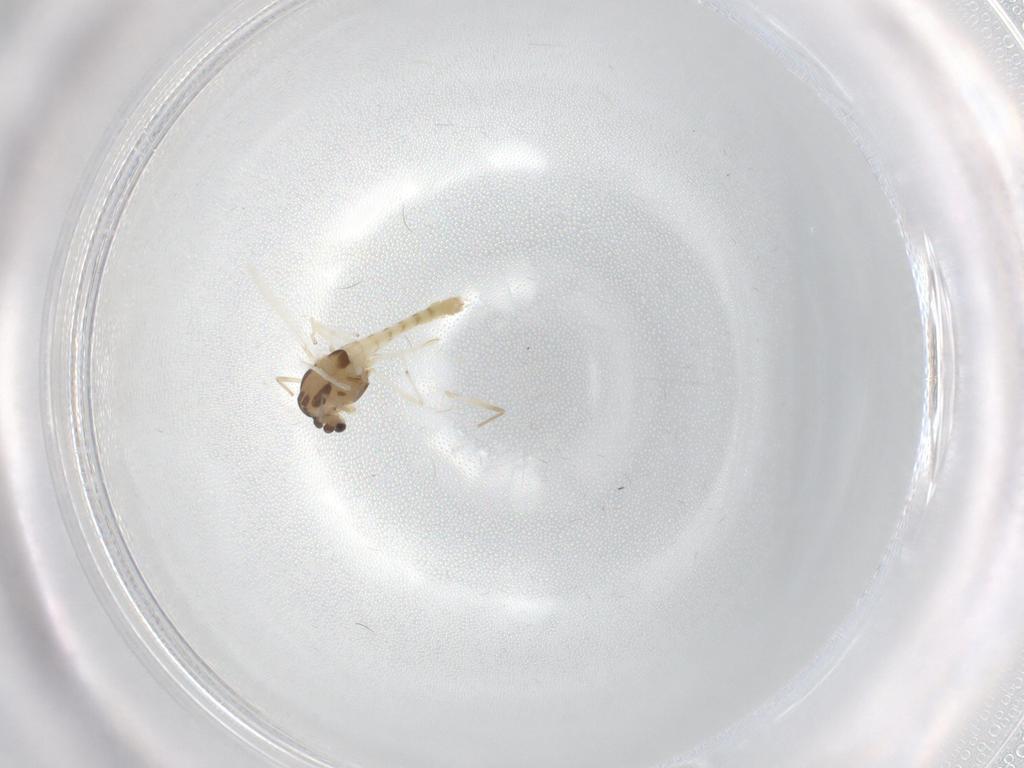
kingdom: Animalia
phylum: Arthropoda
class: Insecta
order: Diptera
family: Chironomidae
